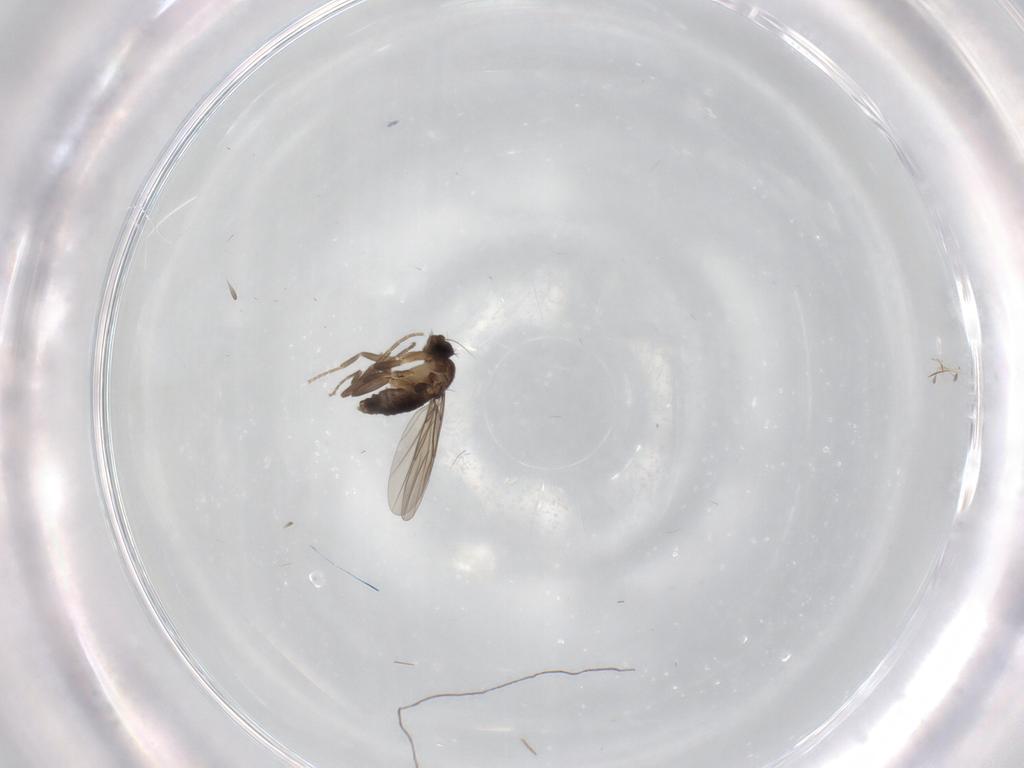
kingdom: Animalia
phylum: Arthropoda
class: Insecta
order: Diptera
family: Phoridae
